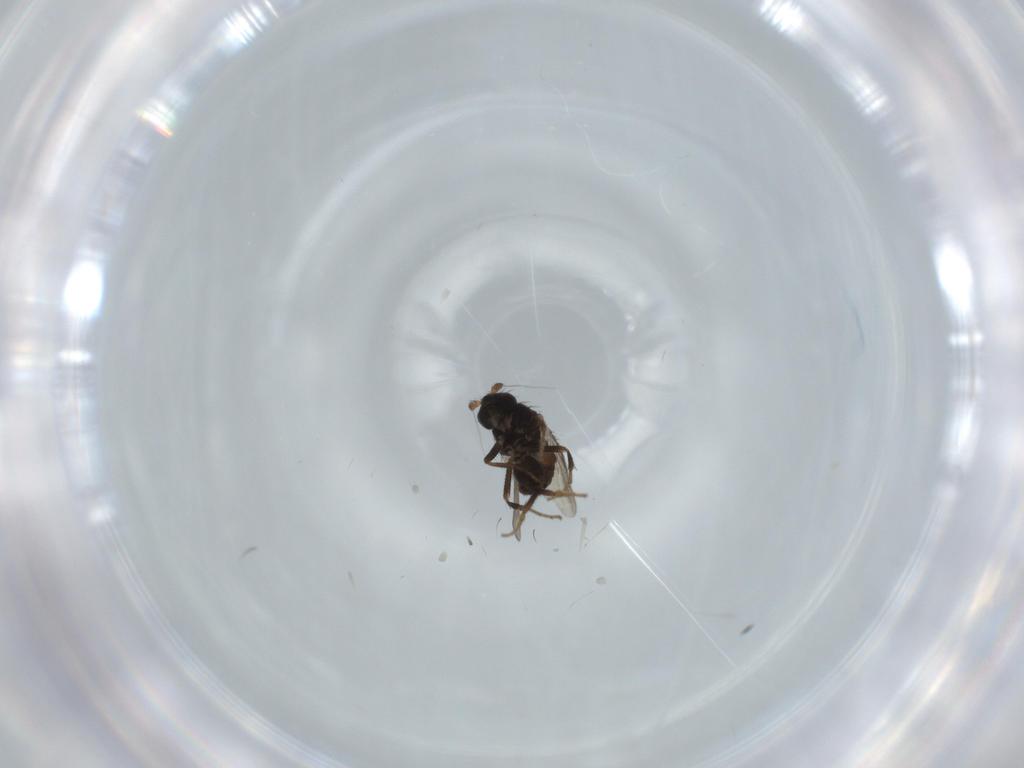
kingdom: Animalia
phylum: Arthropoda
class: Insecta
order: Diptera
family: Sphaeroceridae
